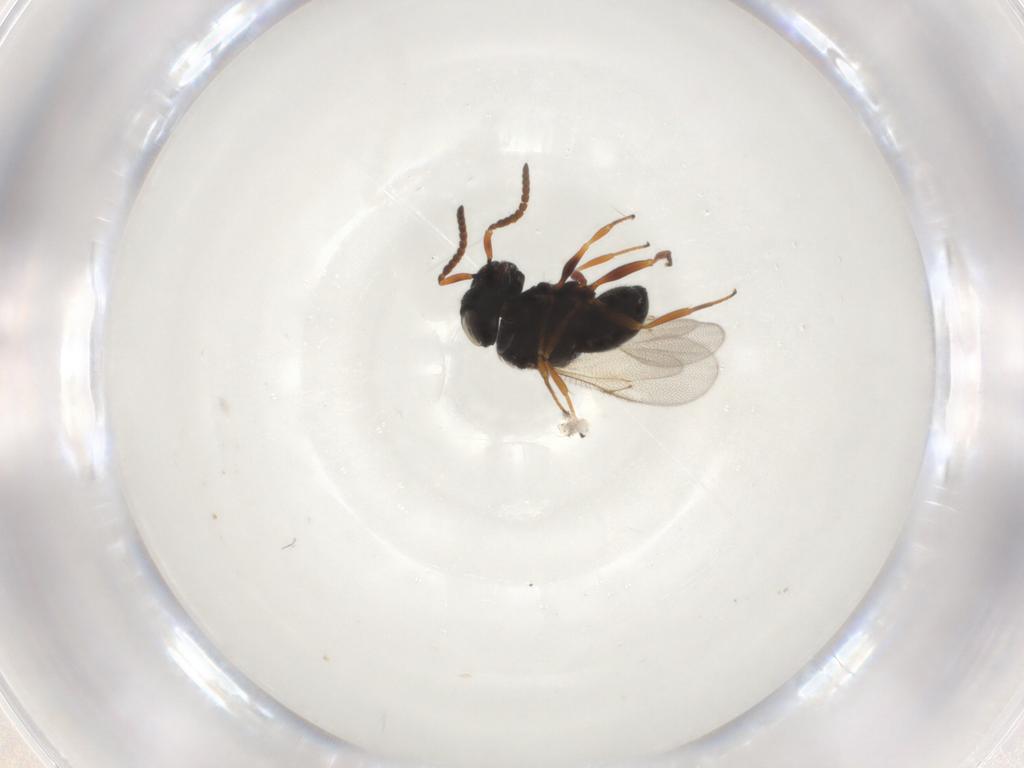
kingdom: Animalia
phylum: Arthropoda
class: Insecta
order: Hymenoptera
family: Scelionidae
